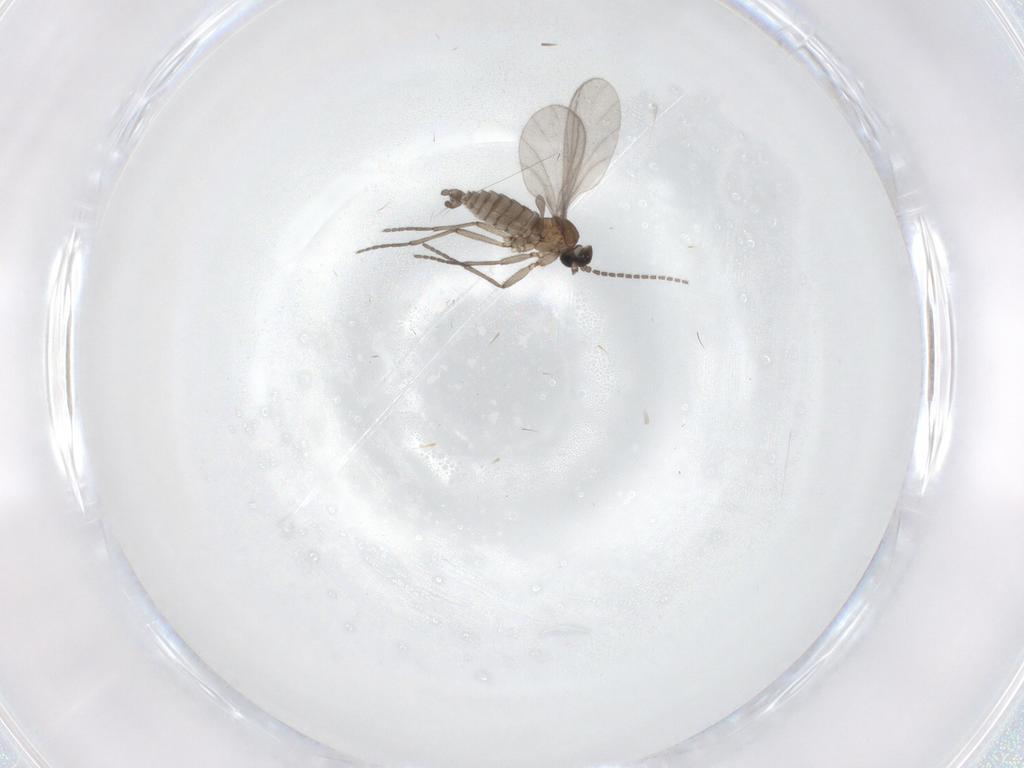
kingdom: Animalia
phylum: Arthropoda
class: Insecta
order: Diptera
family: Sciaridae
